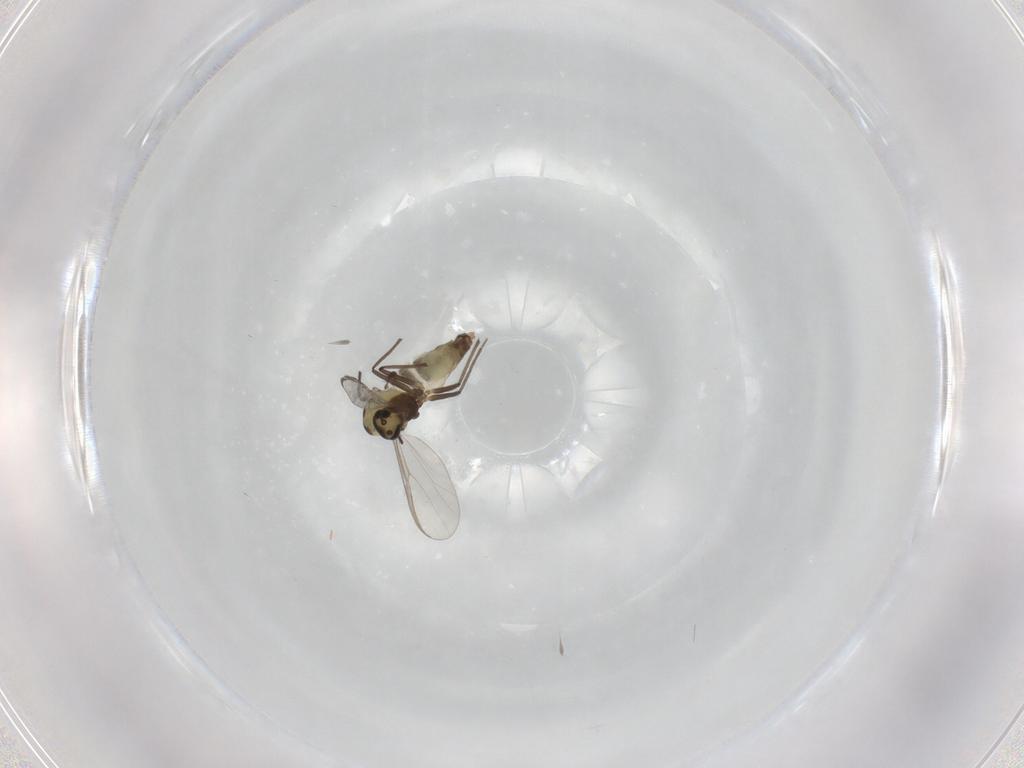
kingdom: Animalia
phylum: Arthropoda
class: Insecta
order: Diptera
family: Chironomidae
